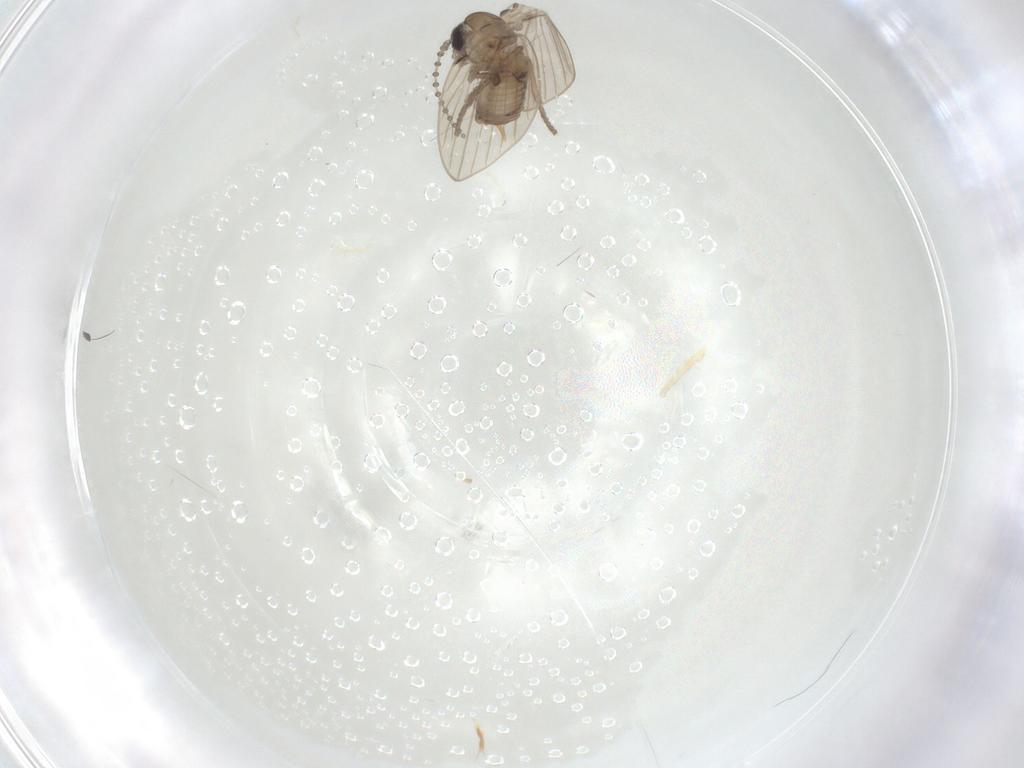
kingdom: Animalia
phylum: Arthropoda
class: Insecta
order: Diptera
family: Psychodidae
